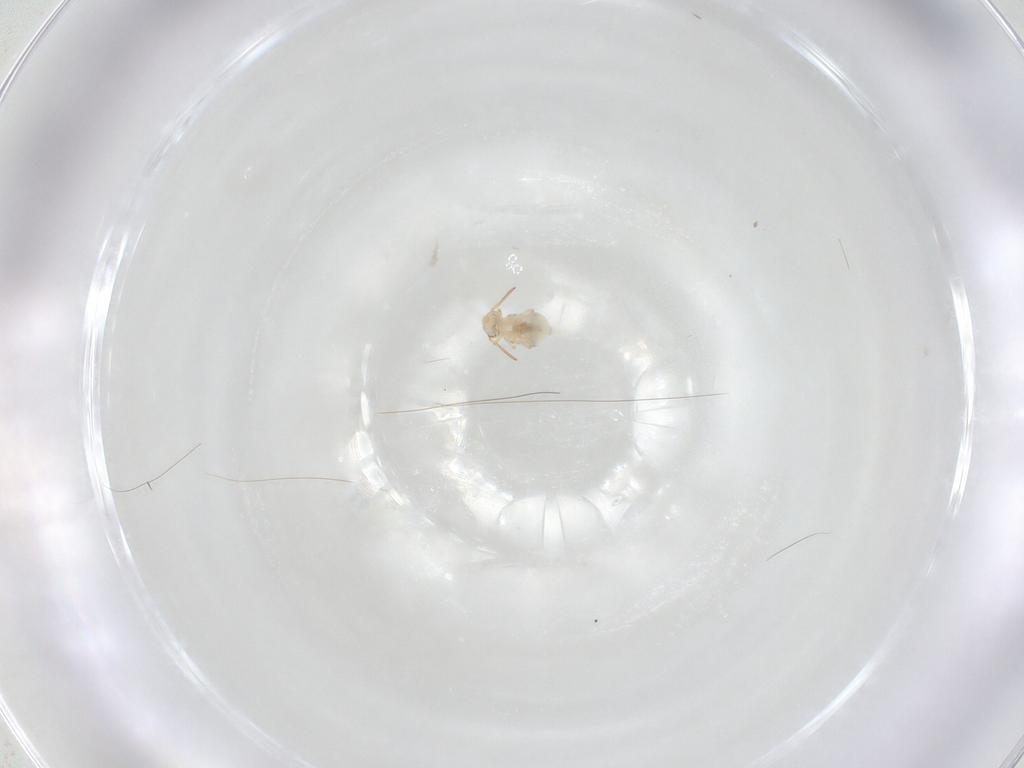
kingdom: Animalia
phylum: Arthropoda
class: Collembola
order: Symphypleona
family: Bourletiellidae
